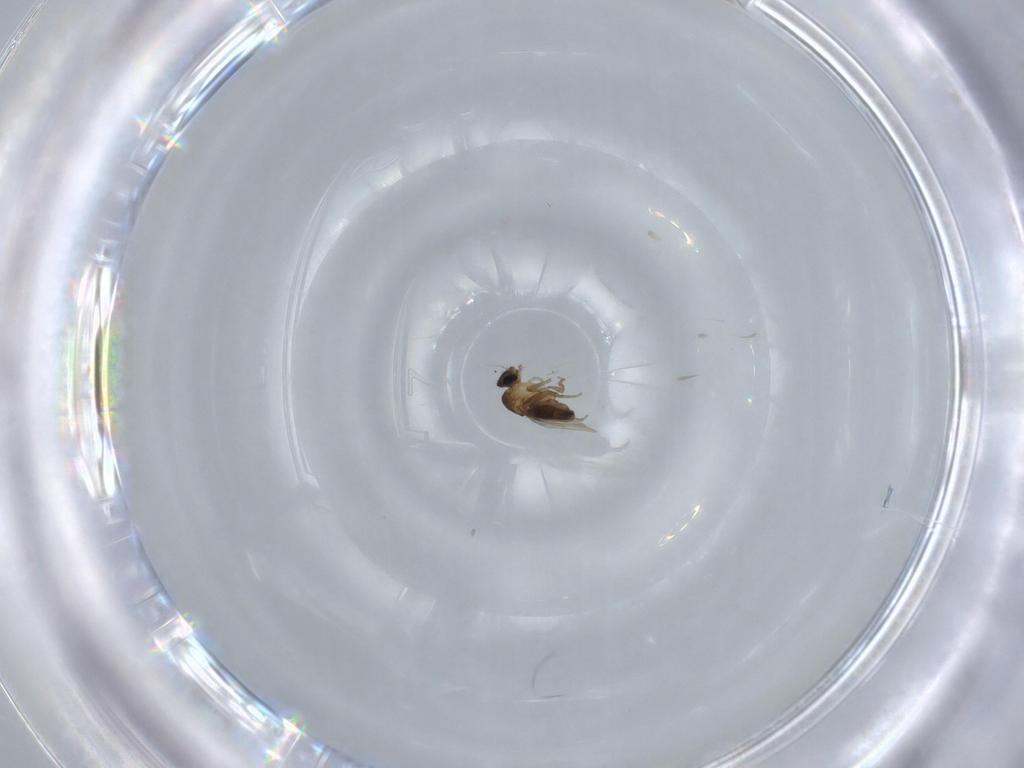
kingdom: Animalia
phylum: Arthropoda
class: Insecta
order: Diptera
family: Phoridae
